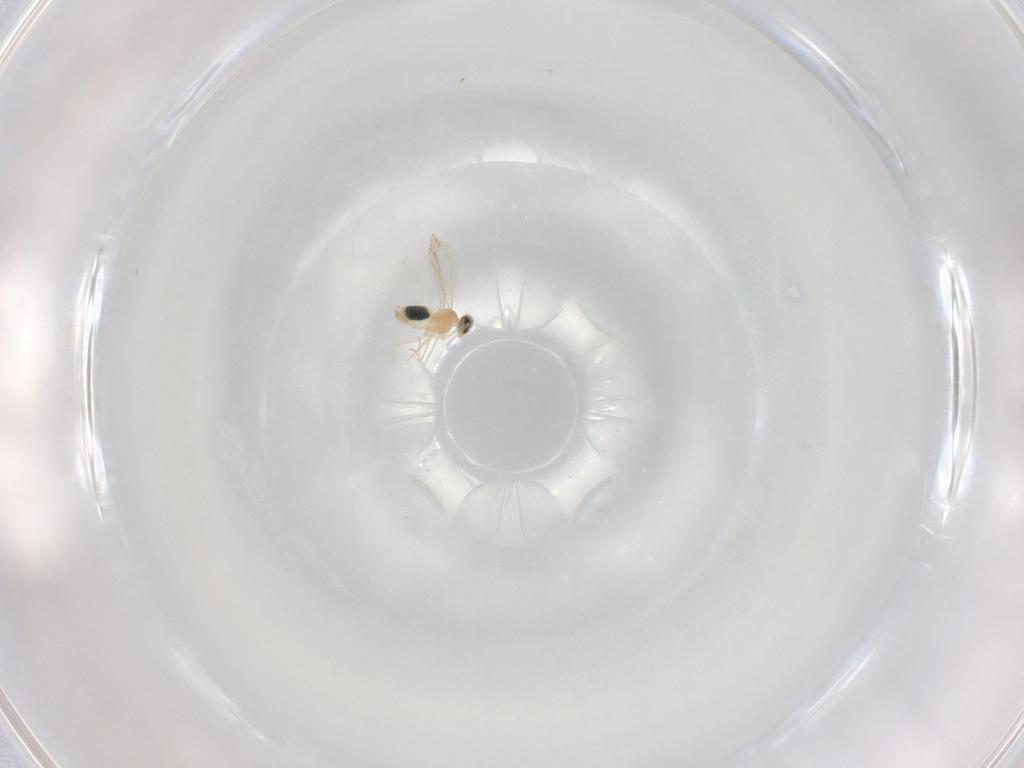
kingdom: Animalia
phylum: Arthropoda
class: Insecta
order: Diptera
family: Cecidomyiidae
